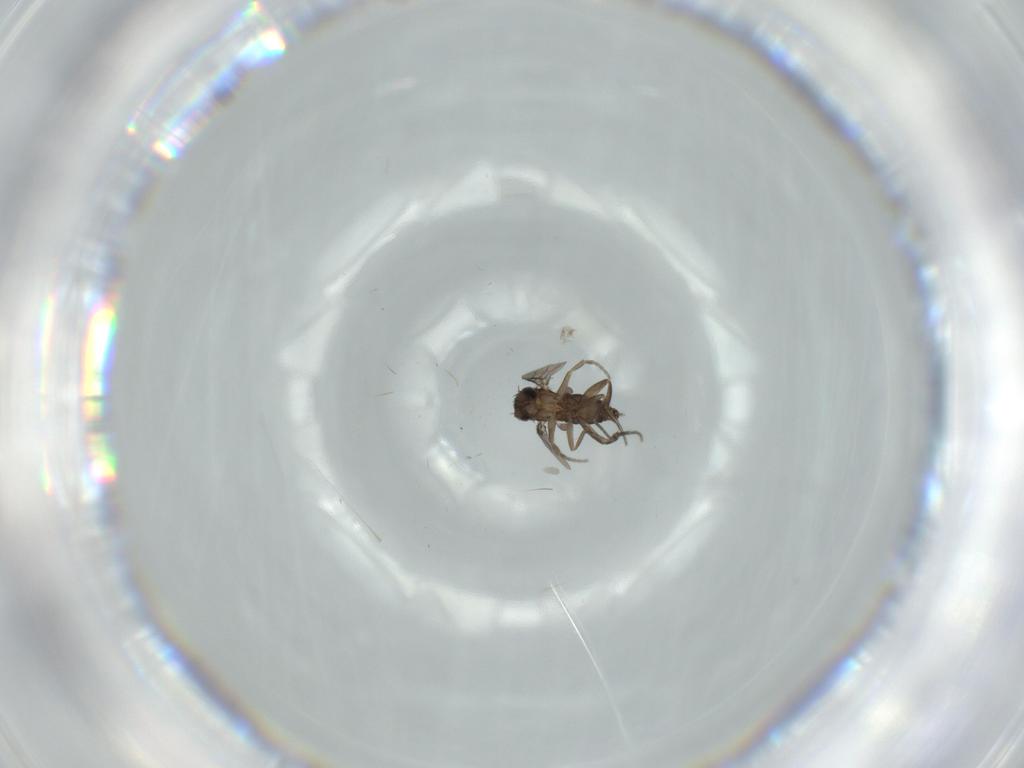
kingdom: Animalia
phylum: Arthropoda
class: Insecta
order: Diptera
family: Phoridae
